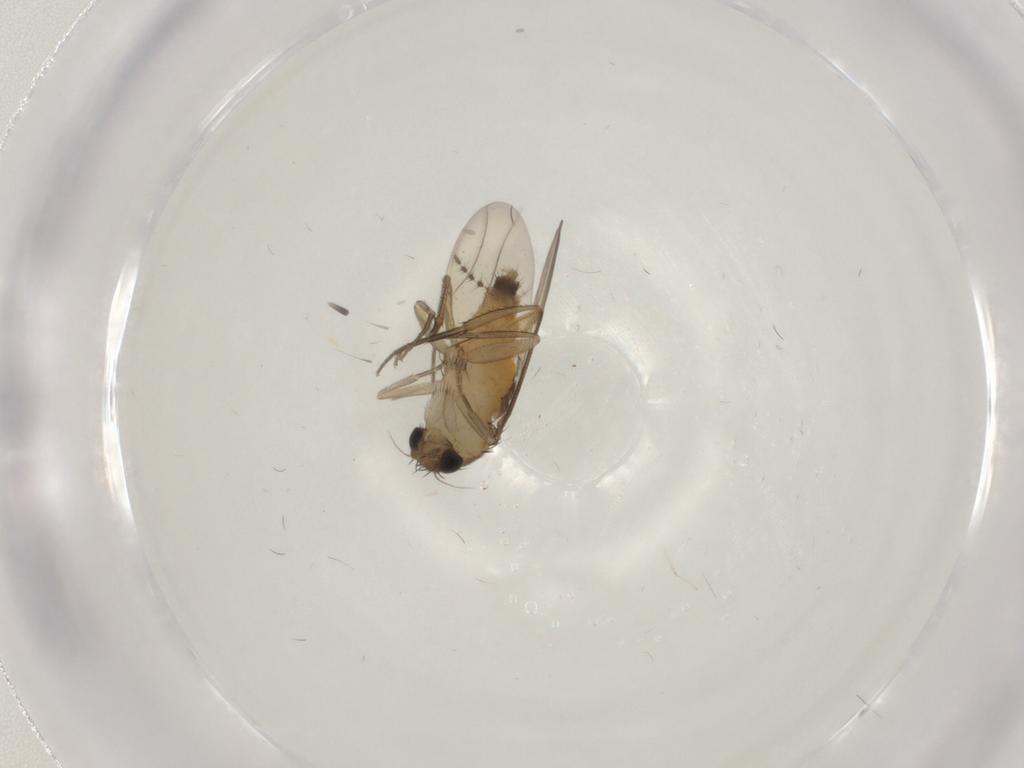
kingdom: Animalia
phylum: Arthropoda
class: Insecta
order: Diptera
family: Phoridae
